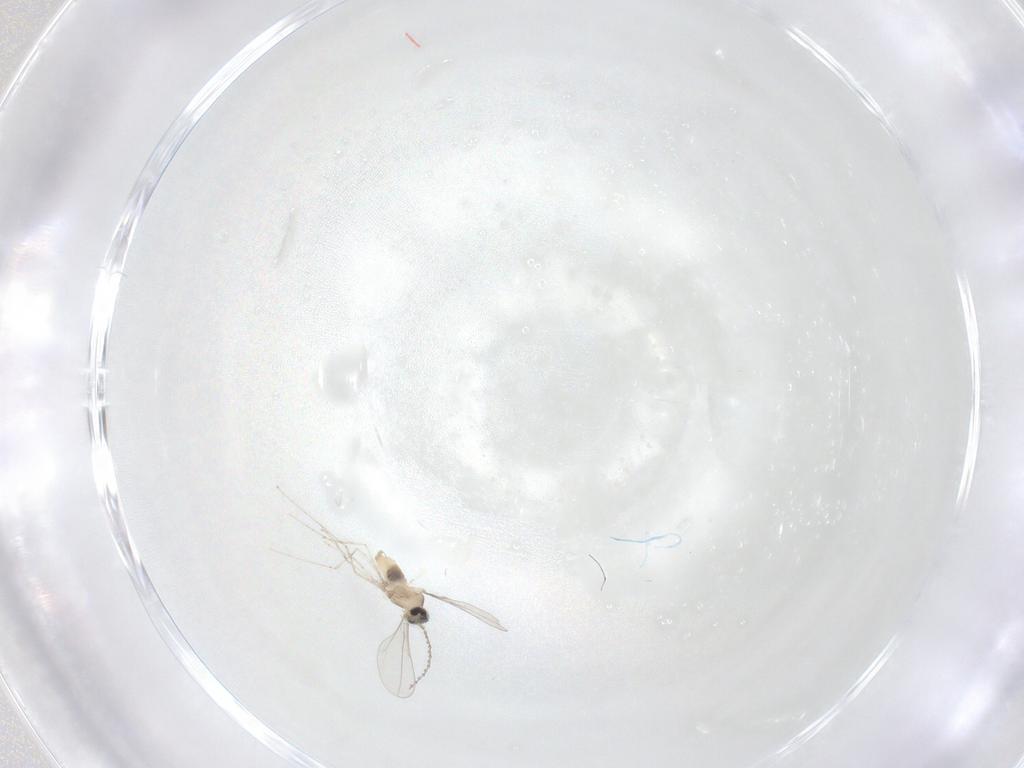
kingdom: Animalia
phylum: Arthropoda
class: Insecta
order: Diptera
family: Cecidomyiidae
